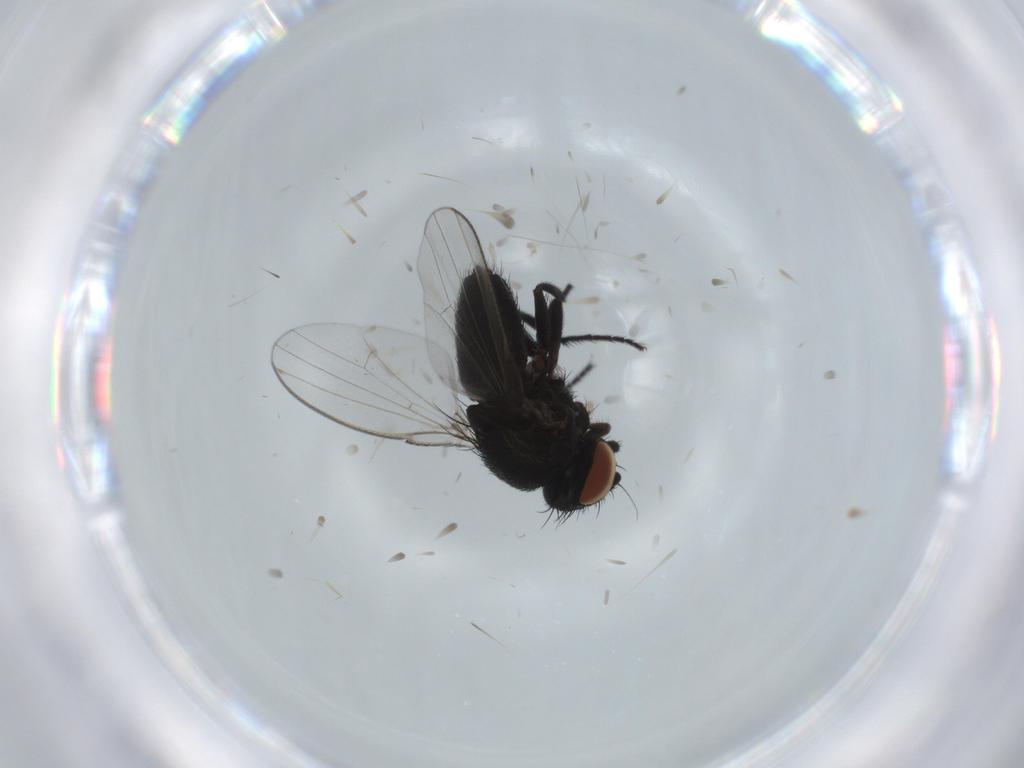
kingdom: Animalia
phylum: Arthropoda
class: Insecta
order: Diptera
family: Milichiidae
